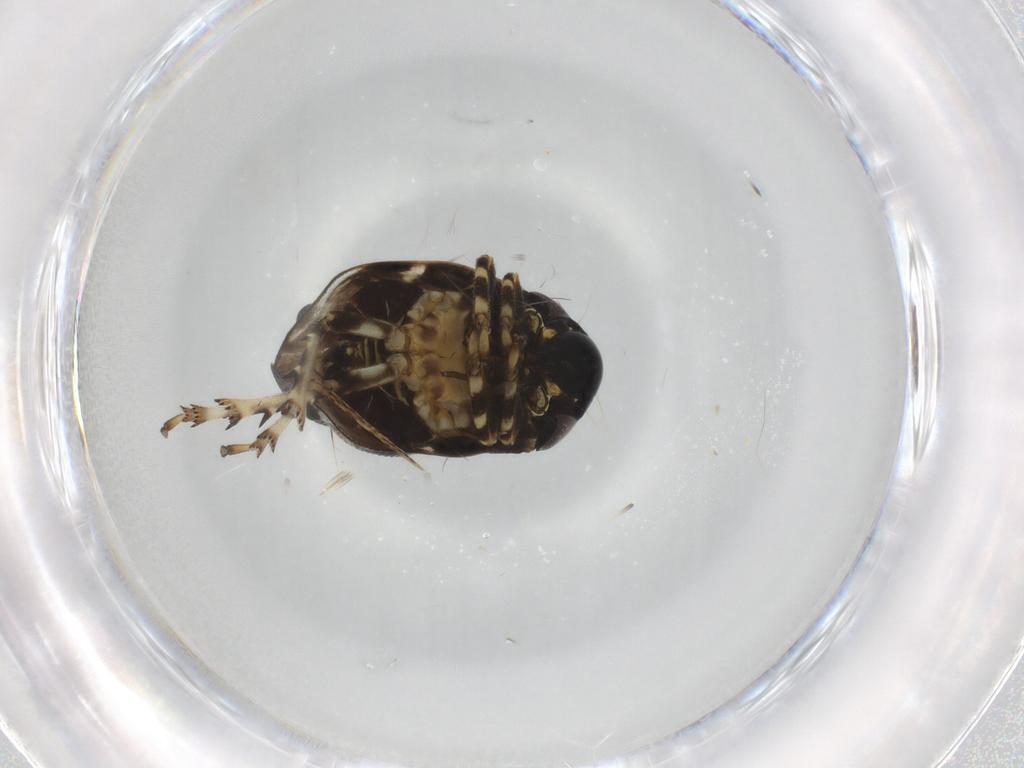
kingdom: Animalia
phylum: Arthropoda
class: Insecta
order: Hemiptera
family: Clastopteridae
